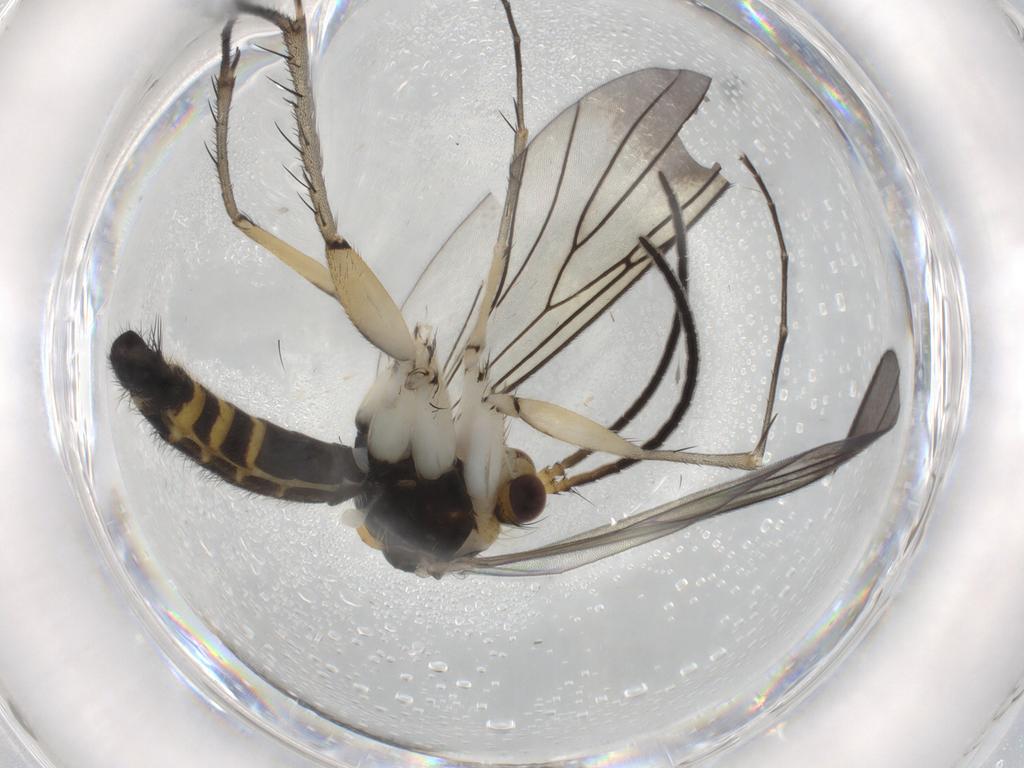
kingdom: Animalia
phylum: Arthropoda
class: Insecta
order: Diptera
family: Mycetophilidae
